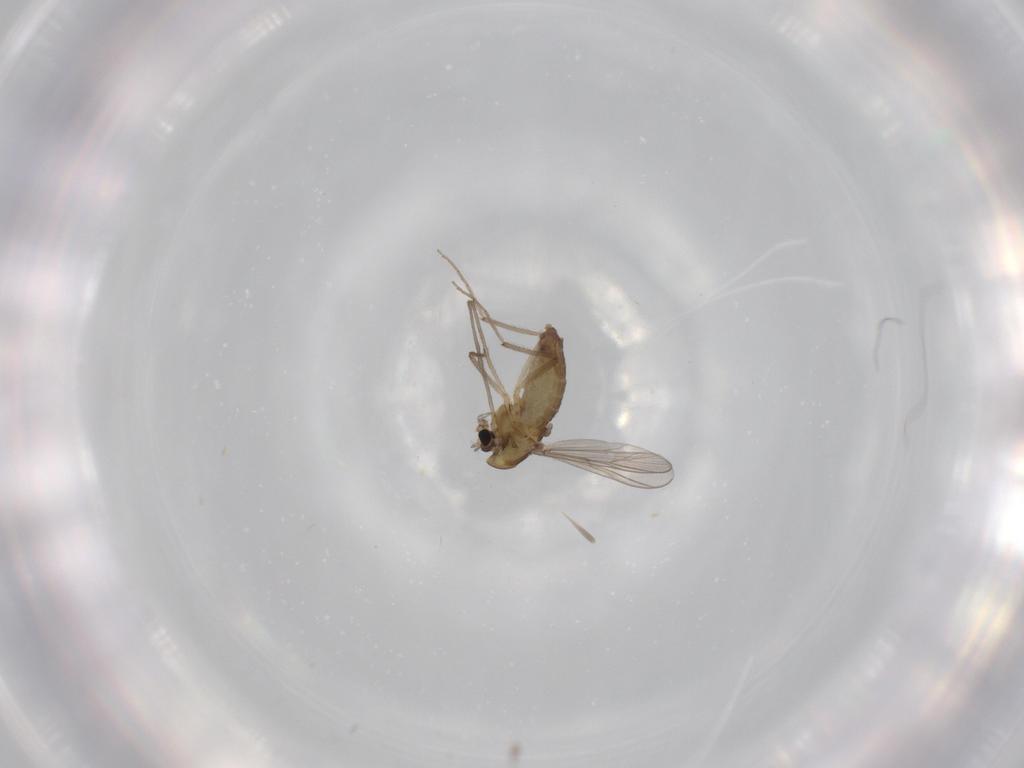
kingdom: Animalia
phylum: Arthropoda
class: Insecta
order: Diptera
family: Chironomidae
